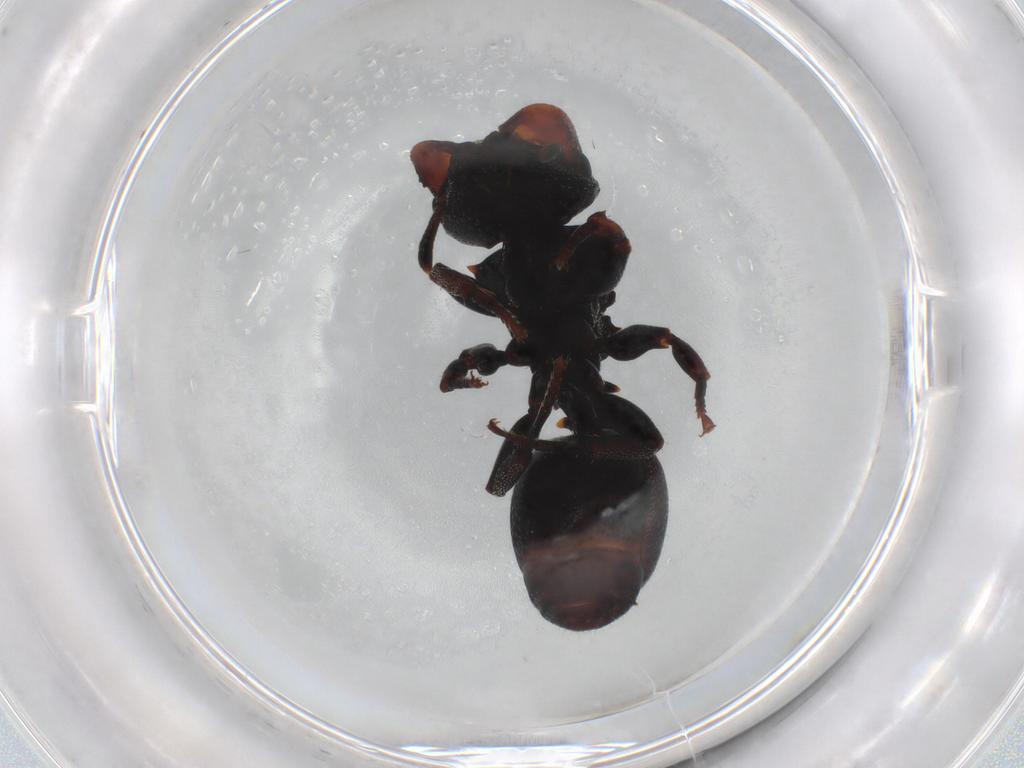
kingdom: Animalia
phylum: Arthropoda
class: Insecta
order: Hymenoptera
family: Formicidae
